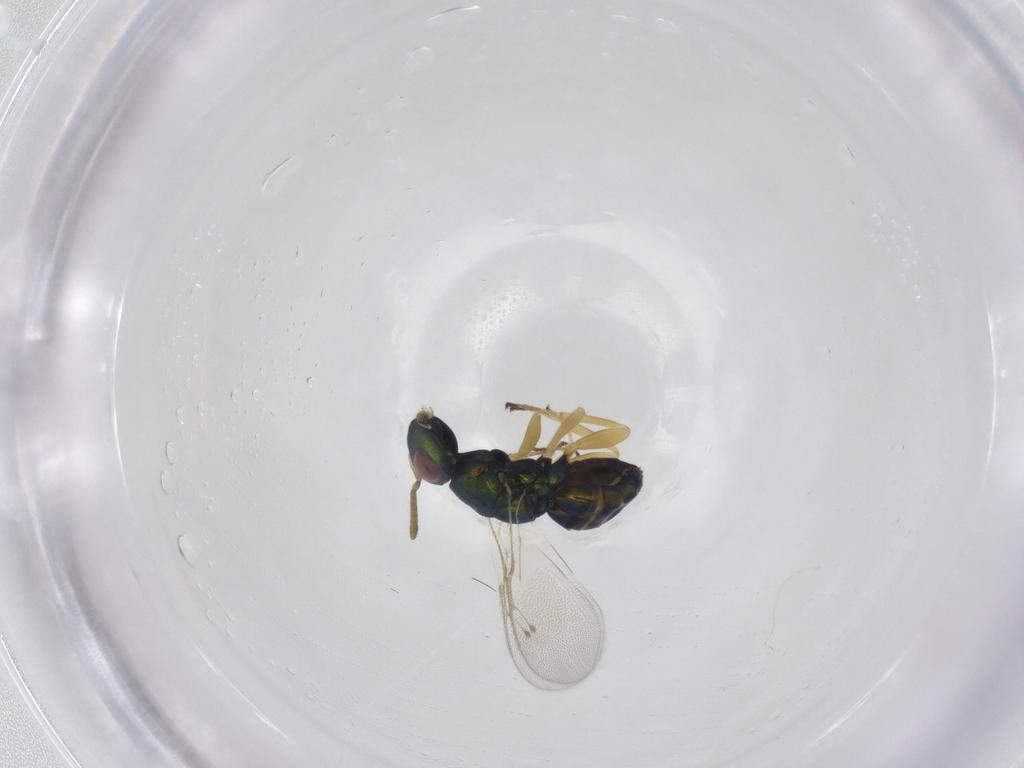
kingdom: Animalia
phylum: Arthropoda
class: Insecta
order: Hymenoptera
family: Pteromalidae
